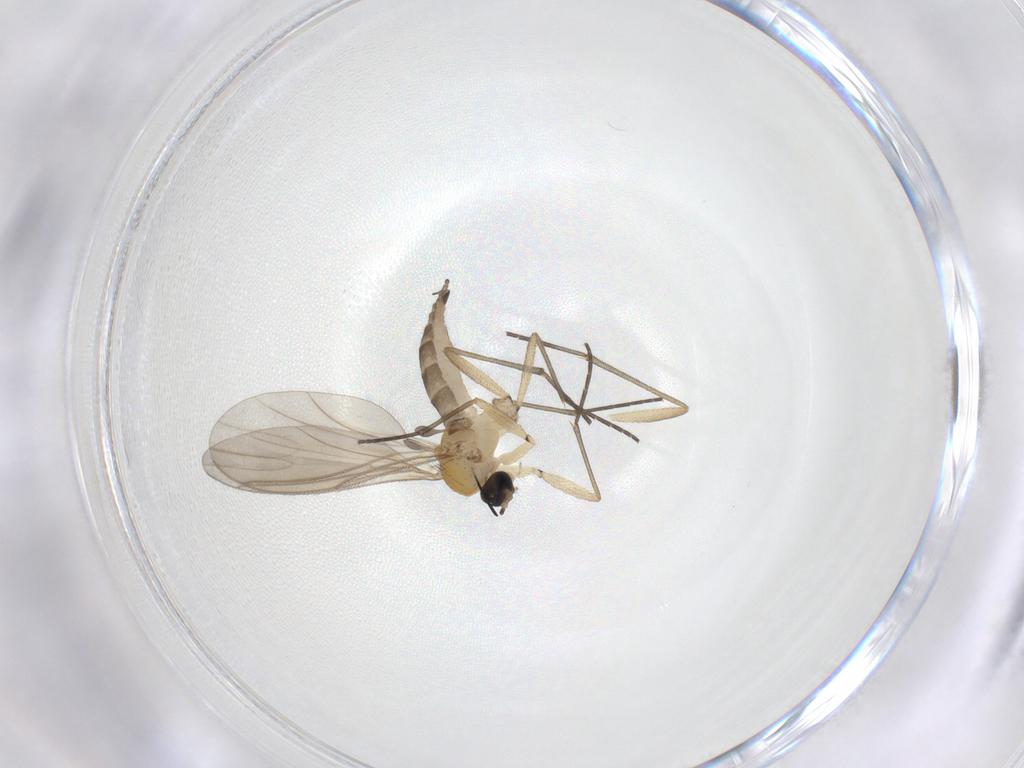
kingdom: Animalia
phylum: Arthropoda
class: Insecta
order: Diptera
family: Sciaridae
